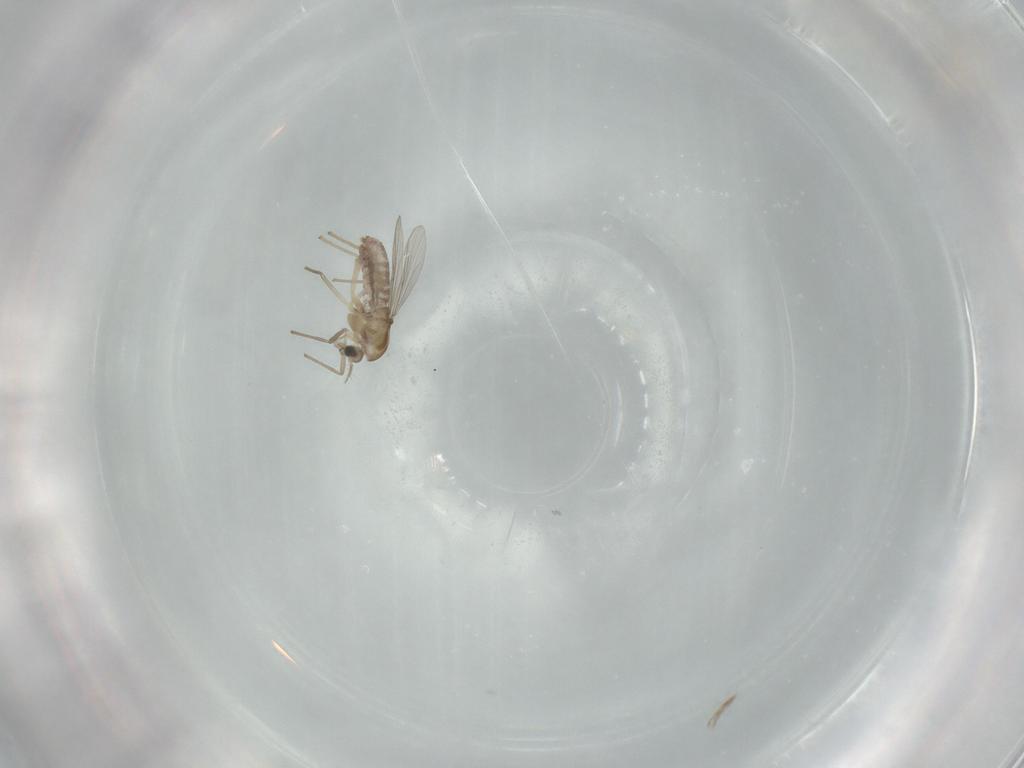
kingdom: Animalia
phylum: Arthropoda
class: Insecta
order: Diptera
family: Chironomidae
